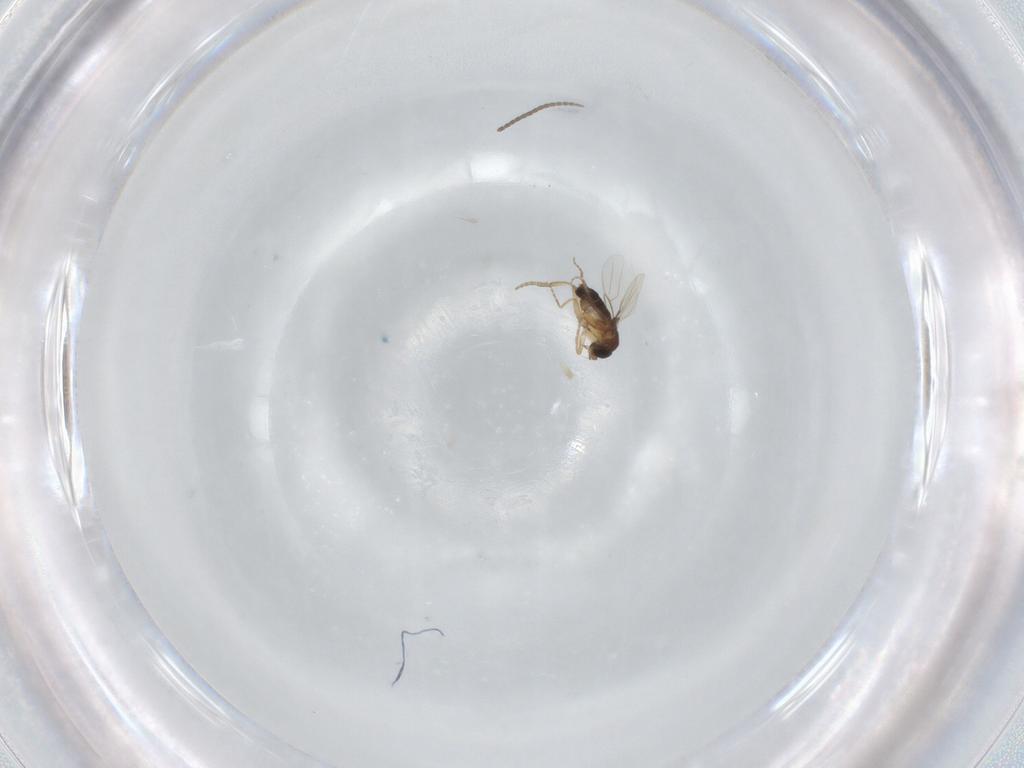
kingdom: Animalia
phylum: Arthropoda
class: Insecta
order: Diptera
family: Sciaridae
